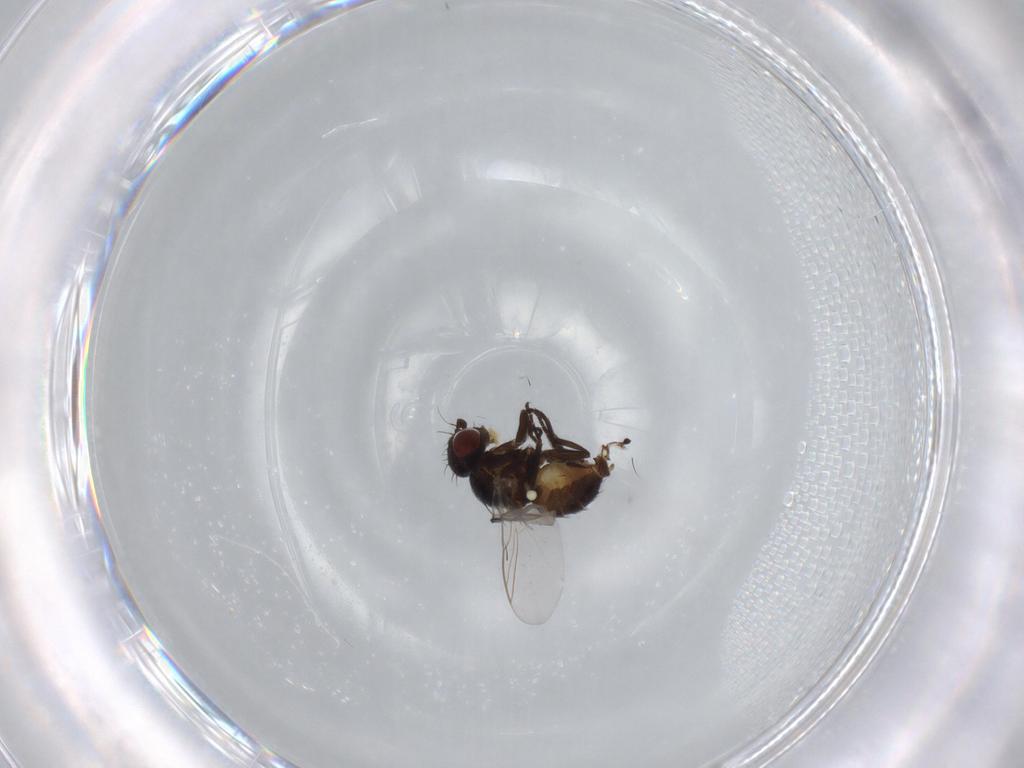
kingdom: Animalia
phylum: Arthropoda
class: Insecta
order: Diptera
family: Agromyzidae
